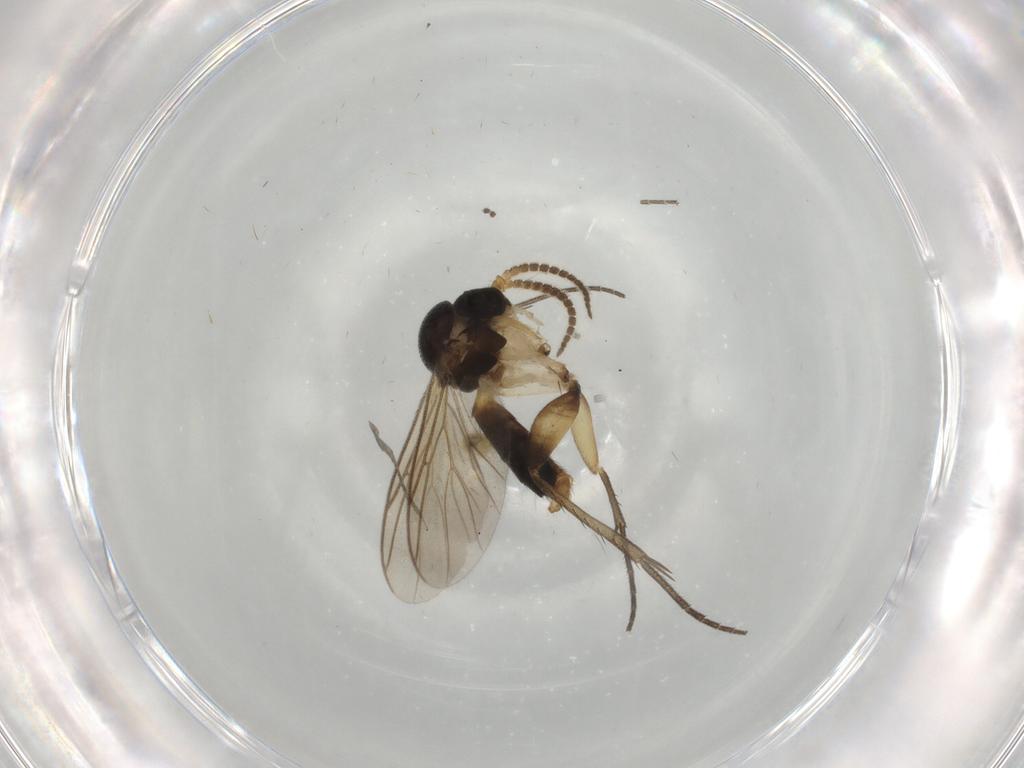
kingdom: Animalia
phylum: Arthropoda
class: Insecta
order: Diptera
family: Mycetophilidae
